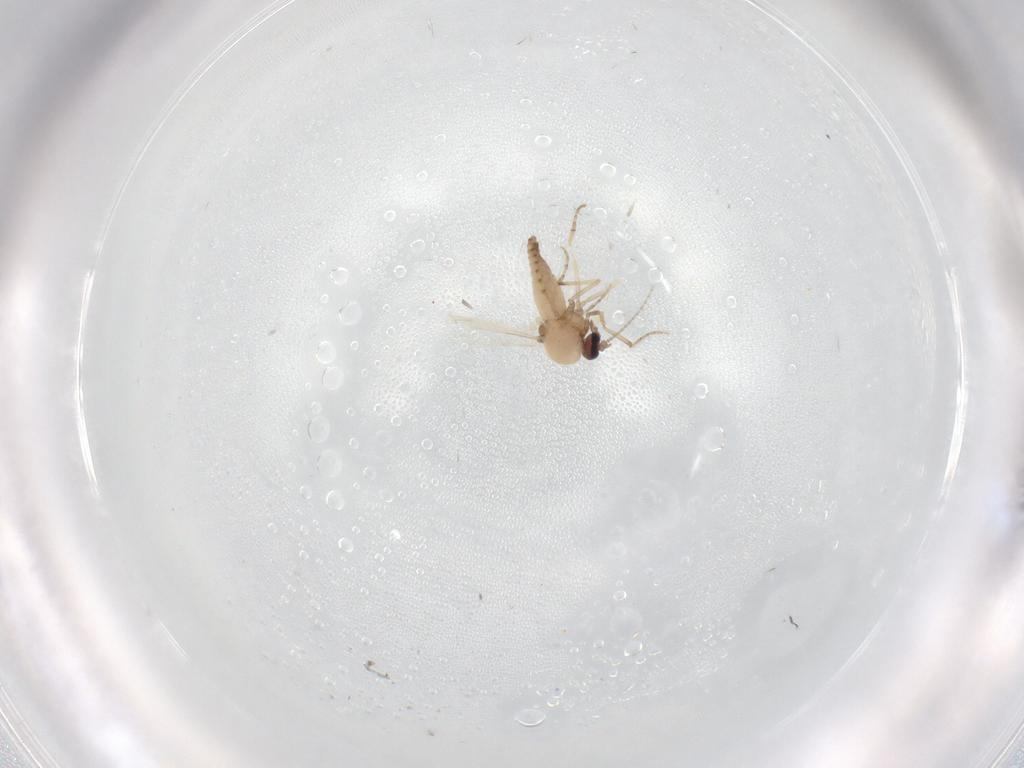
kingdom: Animalia
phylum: Arthropoda
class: Insecta
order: Diptera
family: Ceratopogonidae
